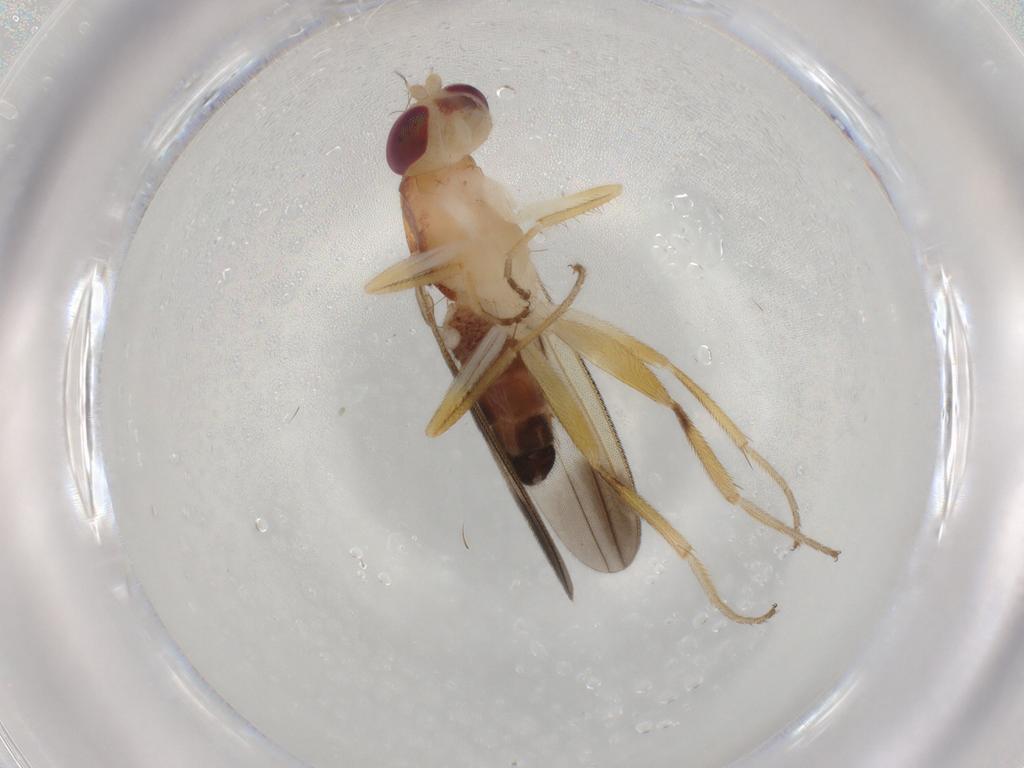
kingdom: Animalia
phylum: Arthropoda
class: Insecta
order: Diptera
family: Clusiidae
